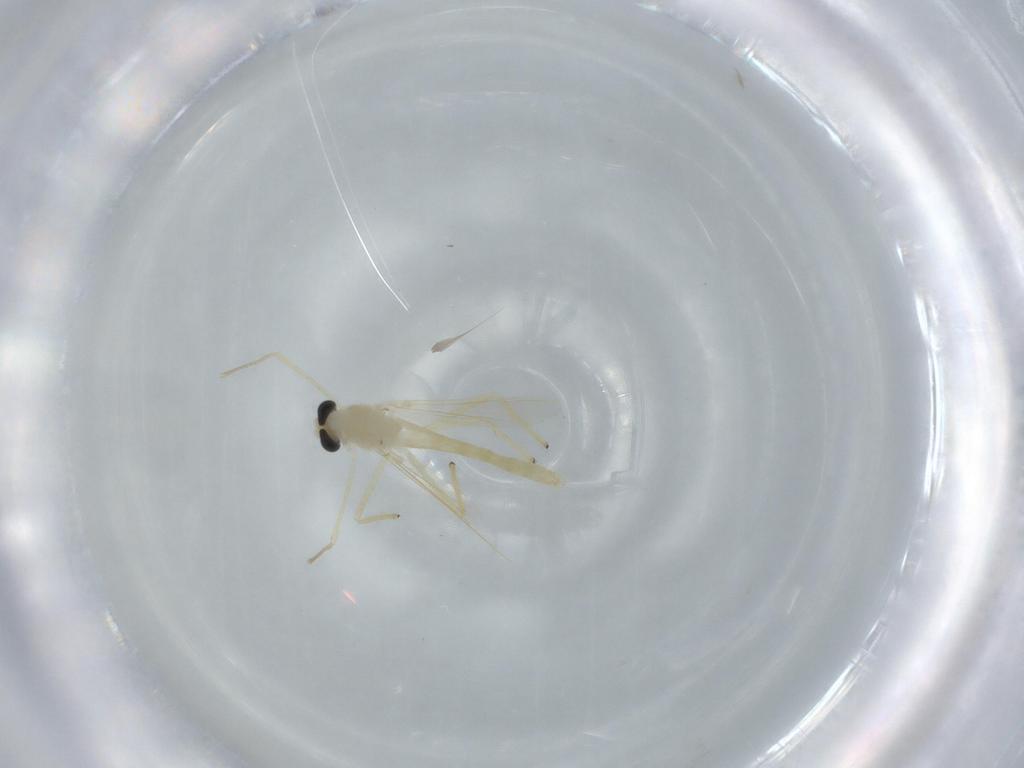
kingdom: Animalia
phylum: Arthropoda
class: Insecta
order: Diptera
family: Chironomidae
